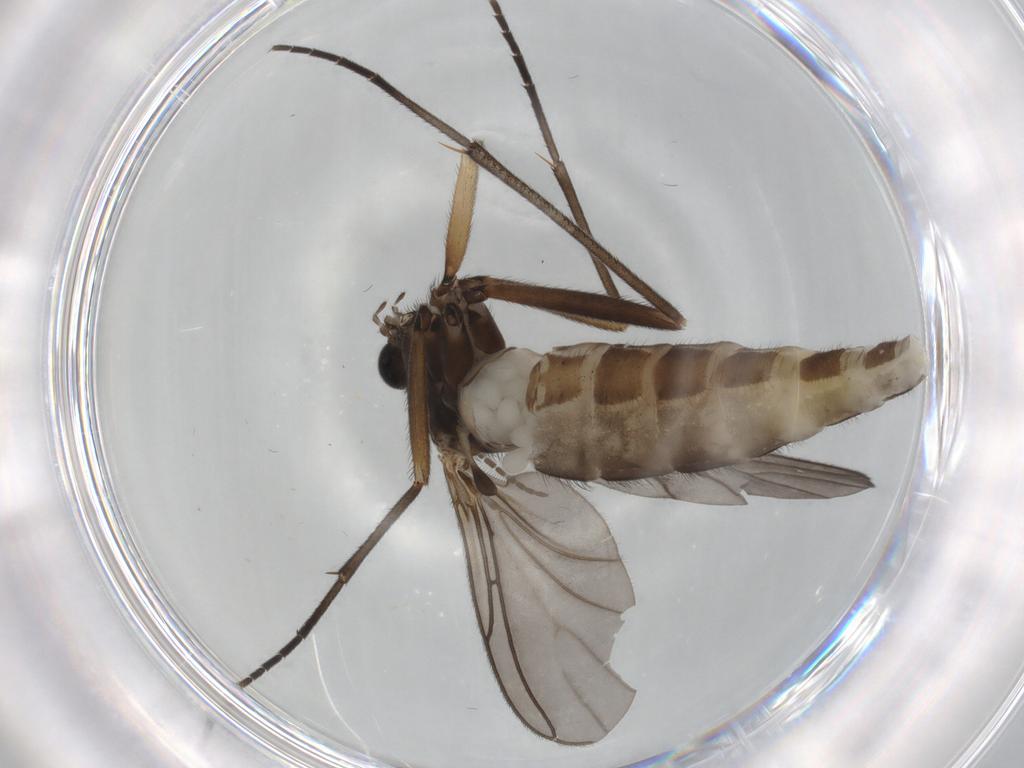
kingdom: Animalia
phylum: Arthropoda
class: Insecta
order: Diptera
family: Sciaridae
